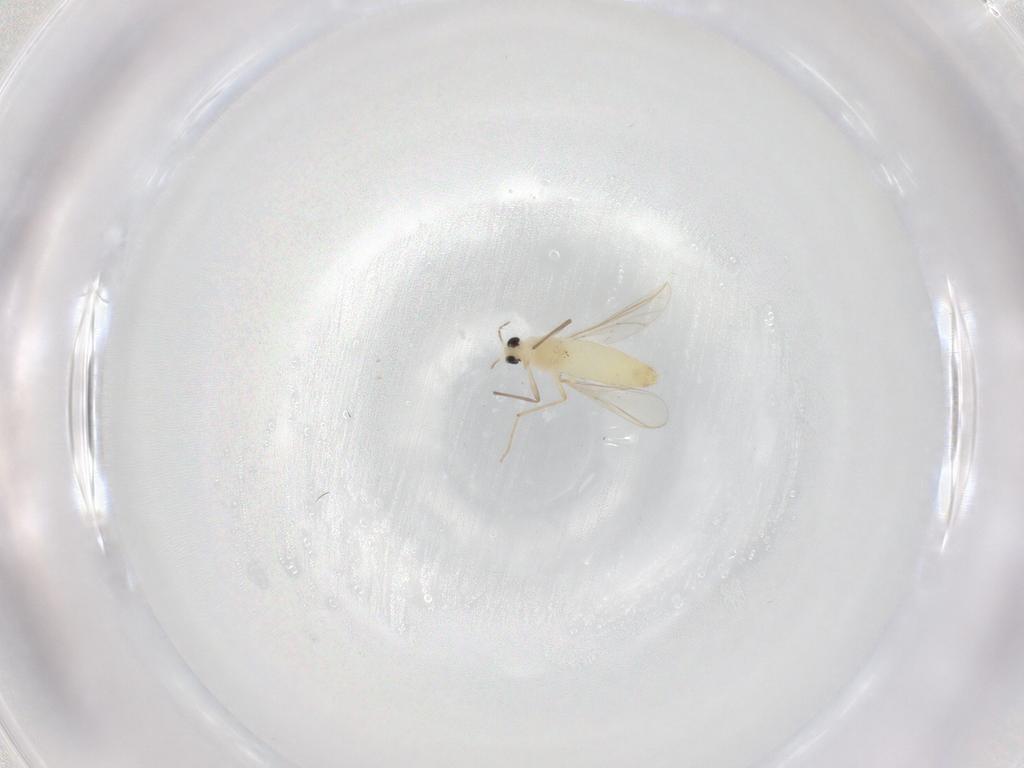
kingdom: Animalia
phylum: Arthropoda
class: Insecta
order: Diptera
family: Chironomidae
